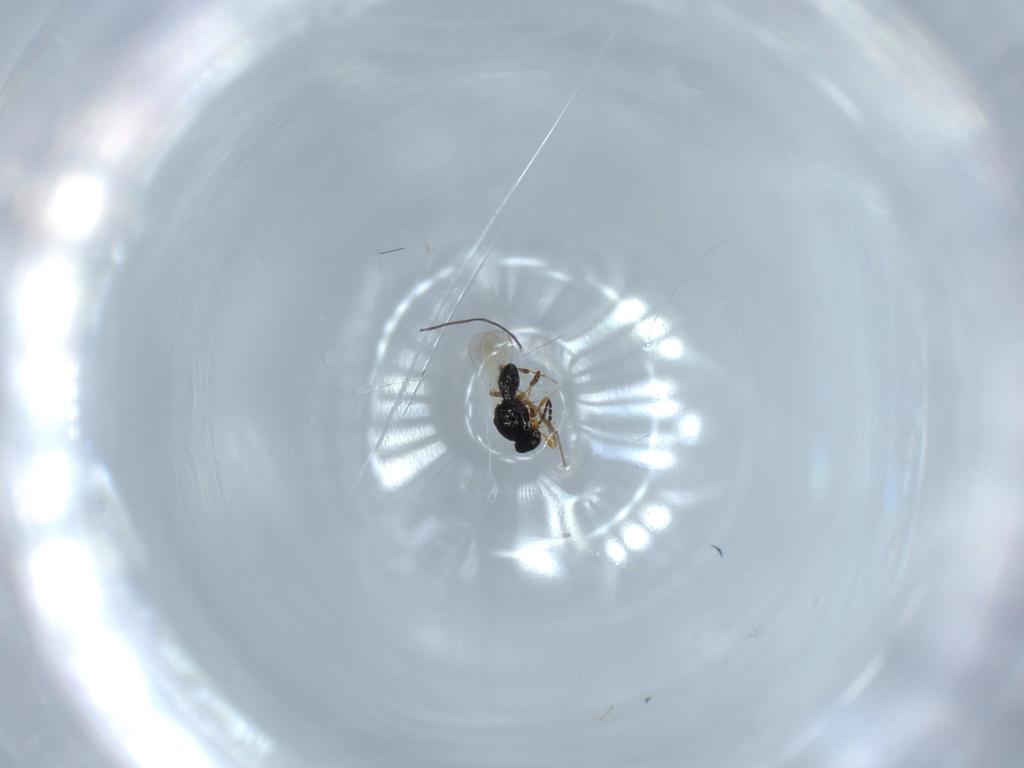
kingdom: Animalia
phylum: Arthropoda
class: Insecta
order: Hymenoptera
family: Platygastridae
